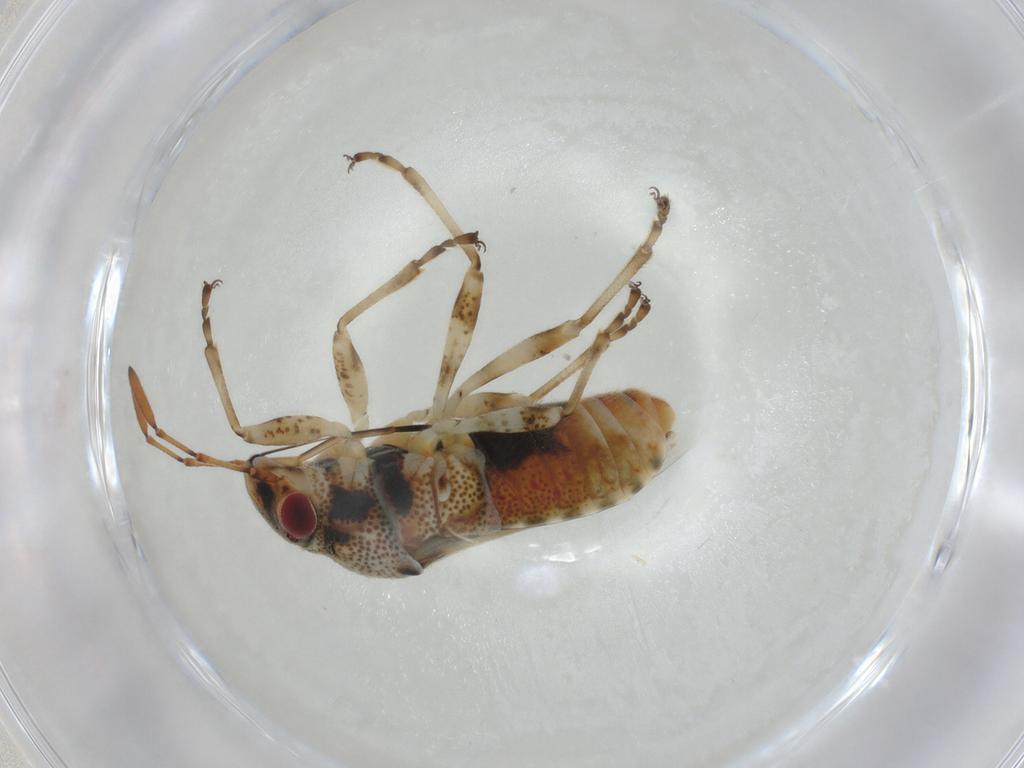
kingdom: Animalia
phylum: Arthropoda
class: Insecta
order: Hemiptera
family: Lygaeidae
